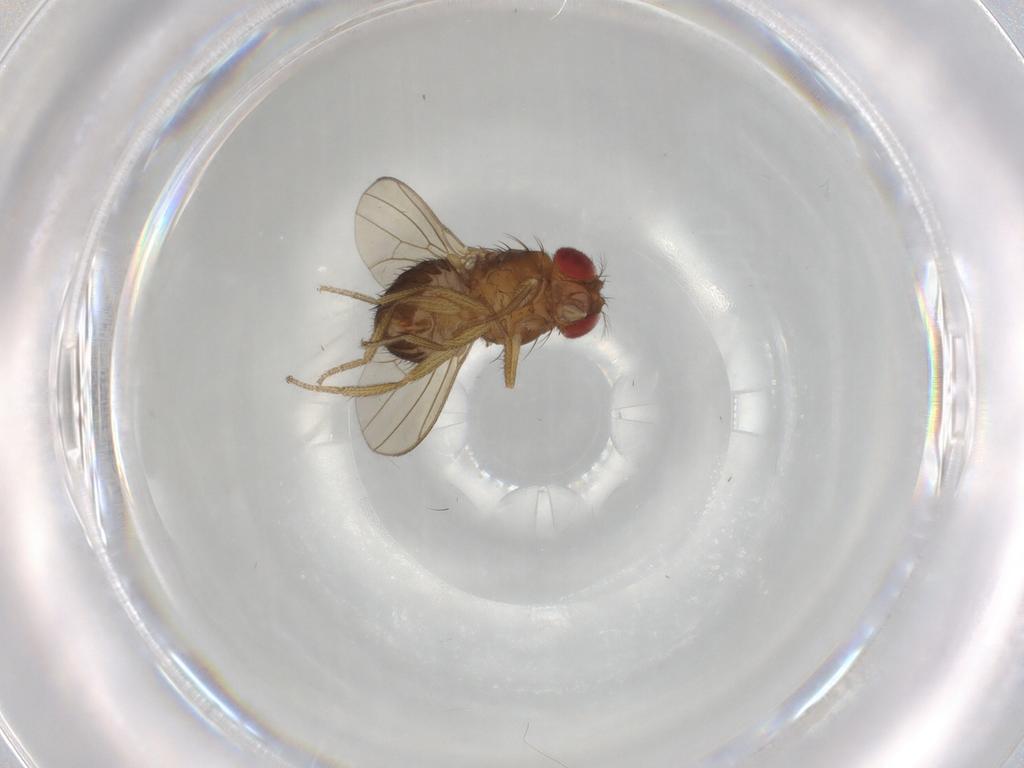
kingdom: Animalia
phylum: Arthropoda
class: Insecta
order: Diptera
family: Drosophilidae
